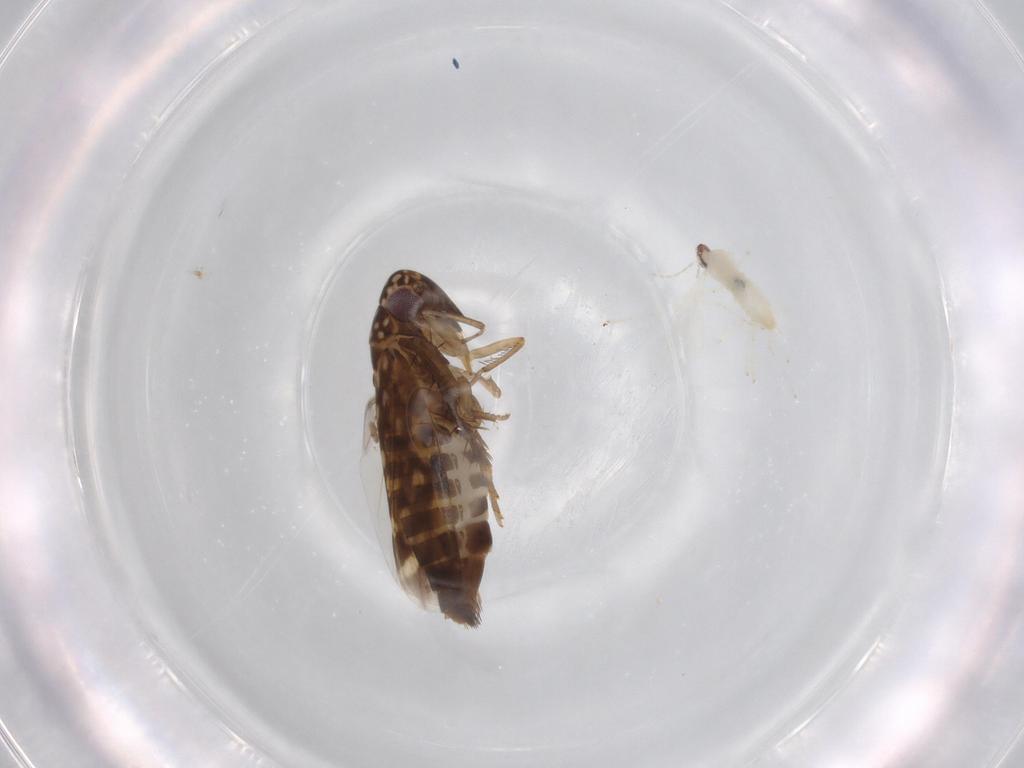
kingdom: Animalia
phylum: Arthropoda
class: Insecta
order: Hemiptera
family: Cicadellidae
